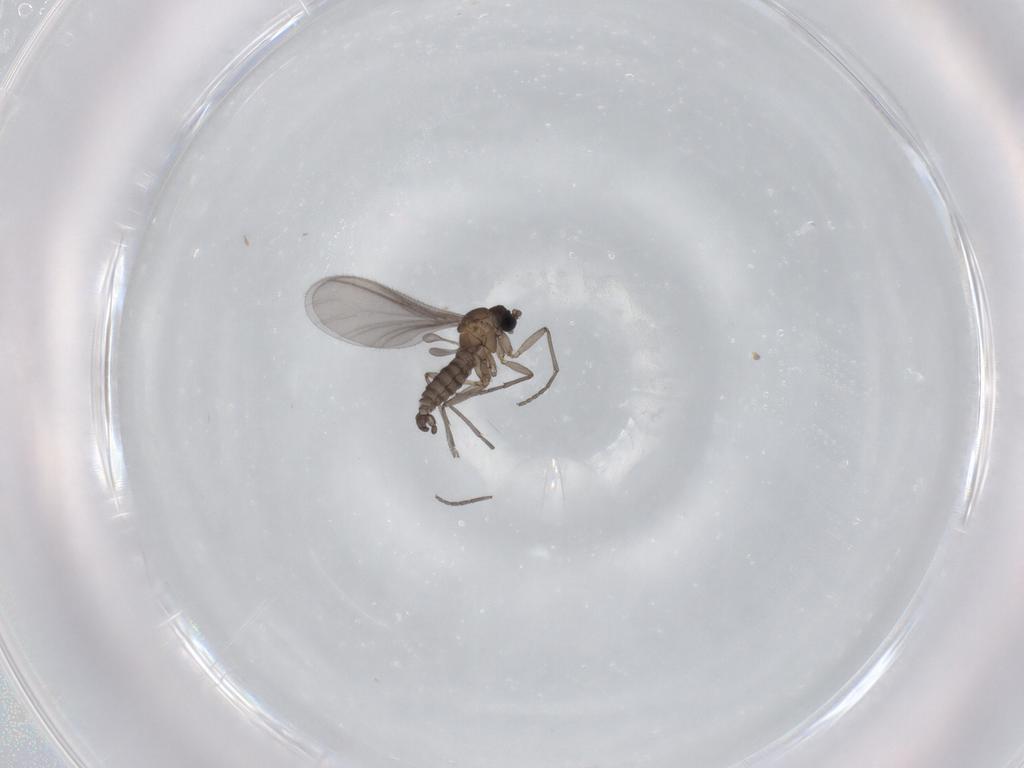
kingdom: Animalia
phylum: Arthropoda
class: Insecta
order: Diptera
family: Sciaridae
